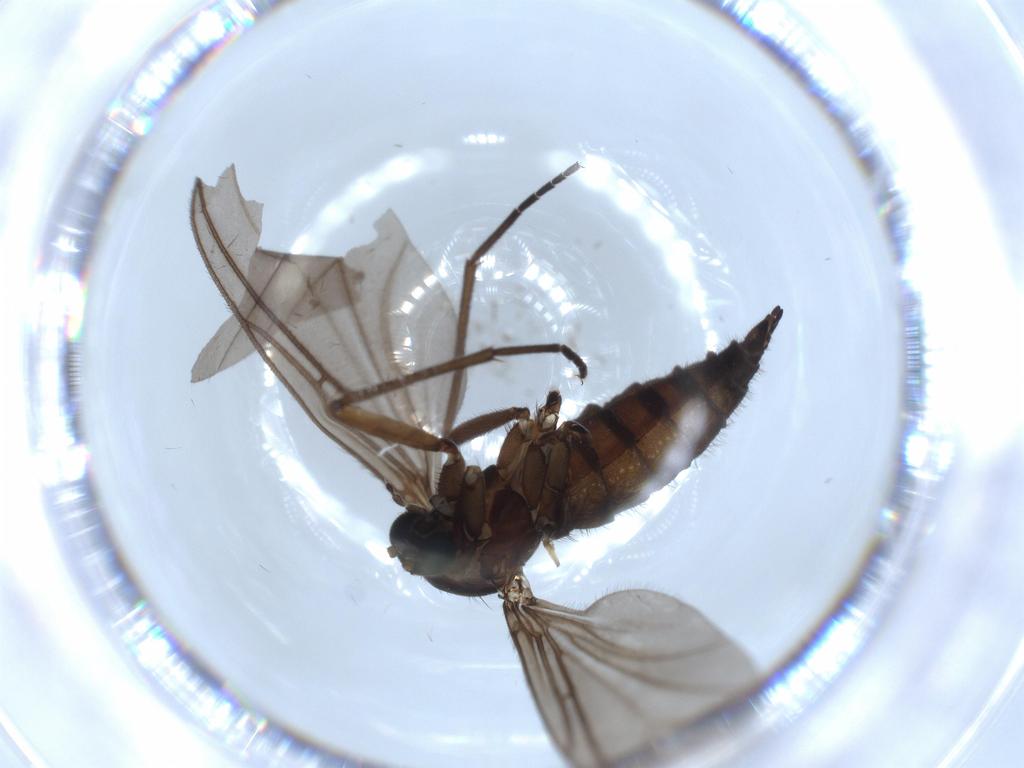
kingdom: Animalia
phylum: Arthropoda
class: Insecta
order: Diptera
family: Sciaridae
